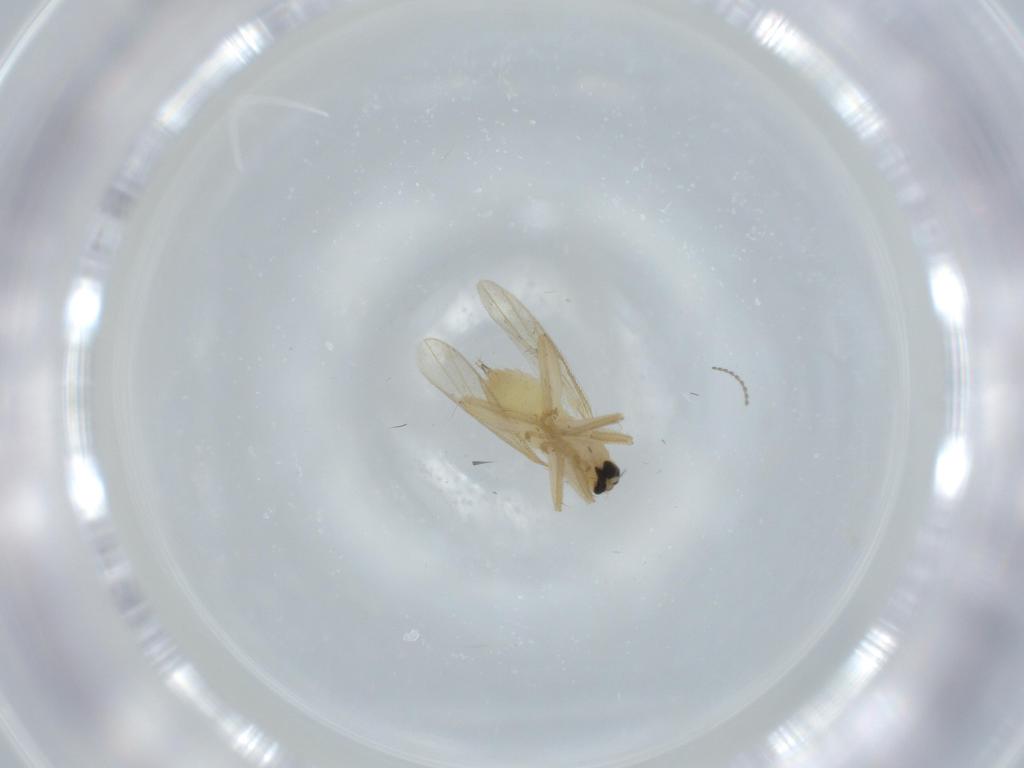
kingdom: Animalia
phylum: Arthropoda
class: Insecta
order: Diptera
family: Hybotidae
